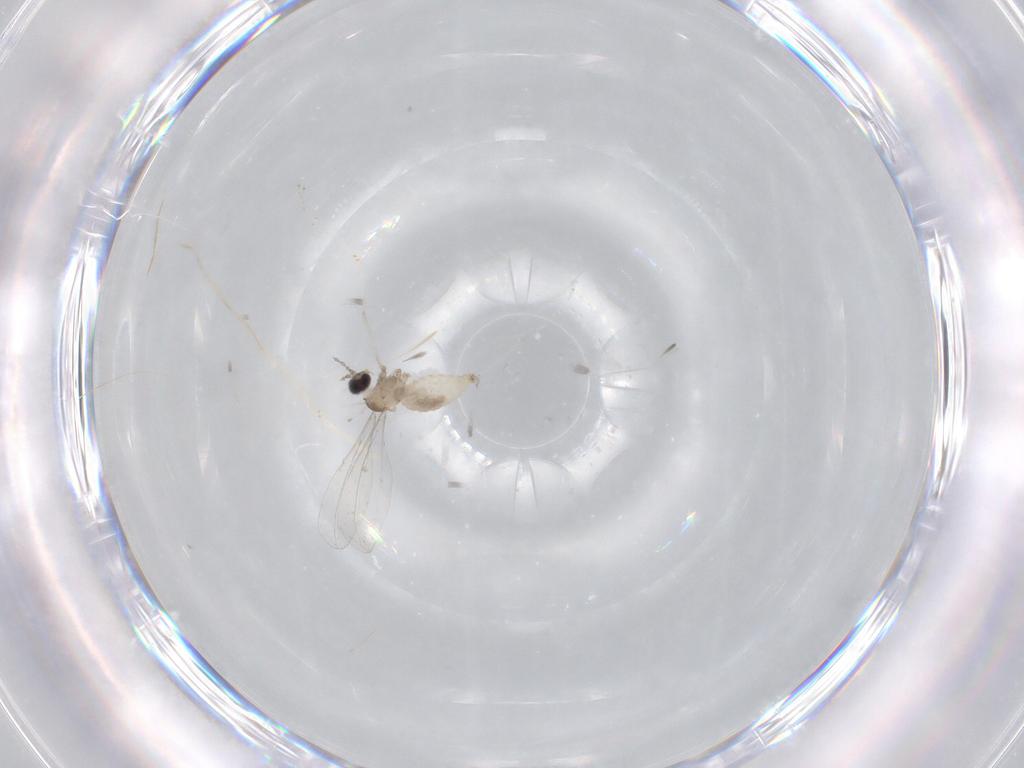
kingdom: Animalia
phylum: Arthropoda
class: Insecta
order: Diptera
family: Cecidomyiidae
